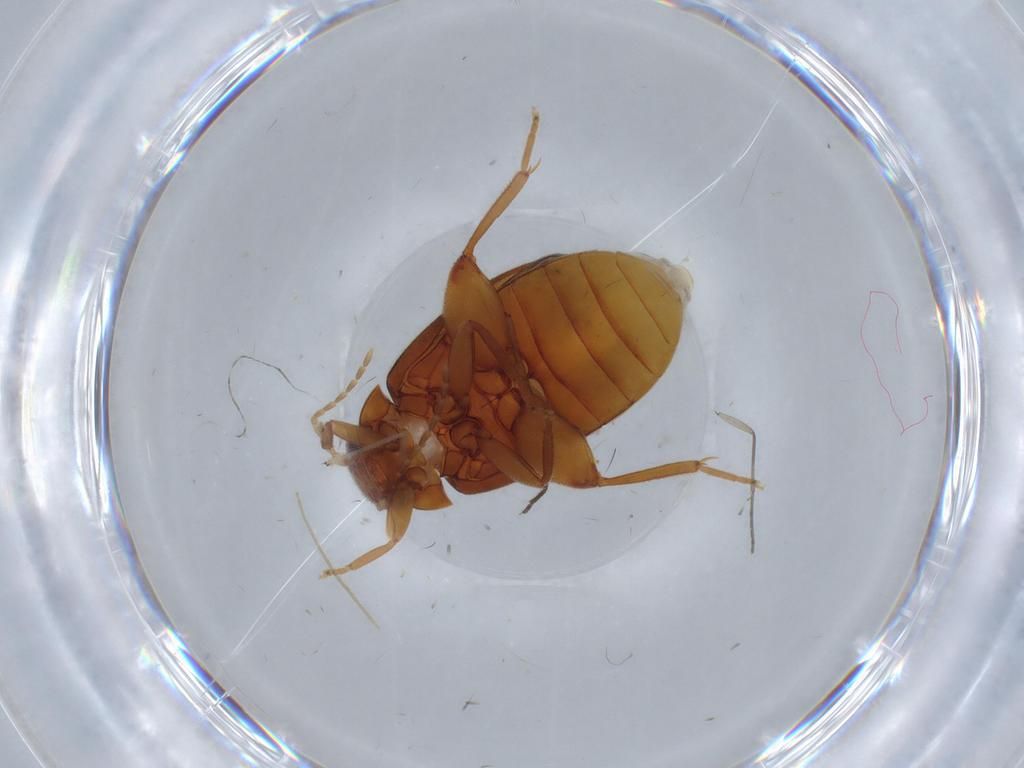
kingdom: Animalia
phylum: Arthropoda
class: Insecta
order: Coleoptera
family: Scirtidae
